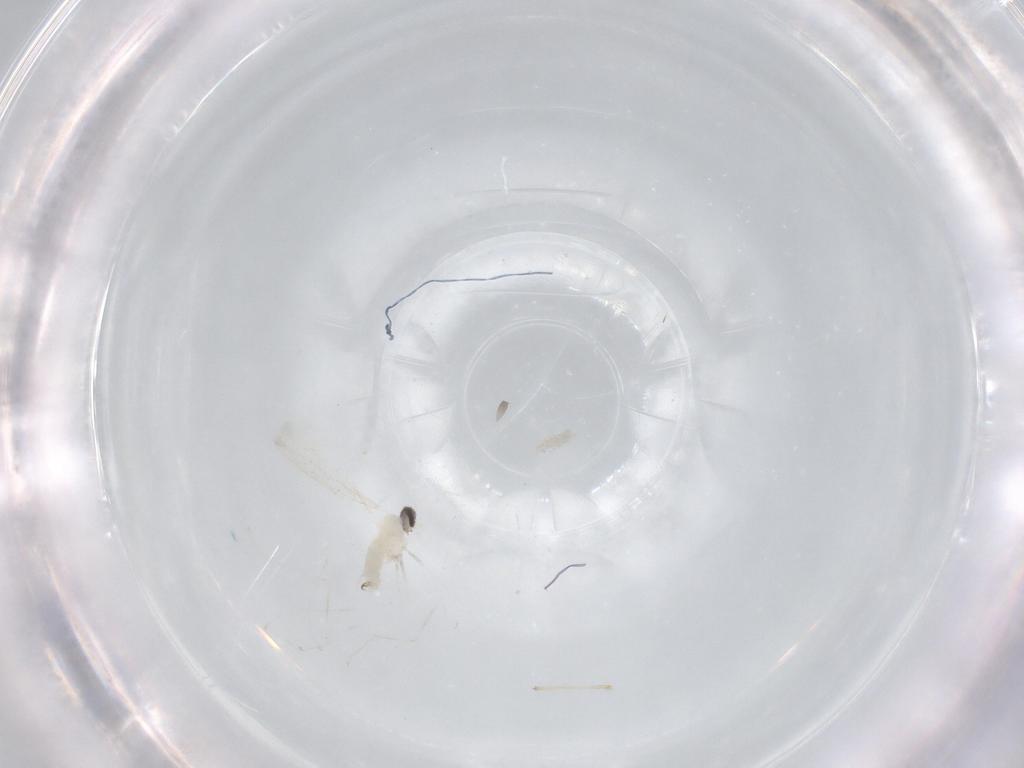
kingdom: Animalia
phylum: Arthropoda
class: Insecta
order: Diptera
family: Cecidomyiidae
